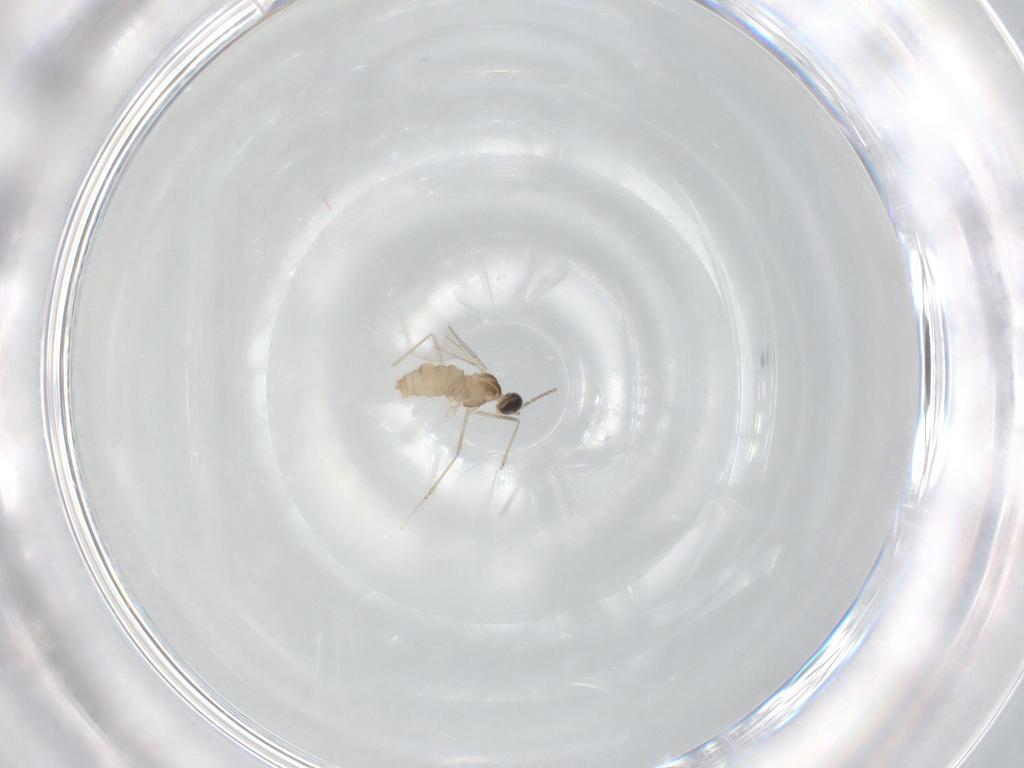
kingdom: Animalia
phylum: Arthropoda
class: Insecta
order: Diptera
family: Cecidomyiidae
